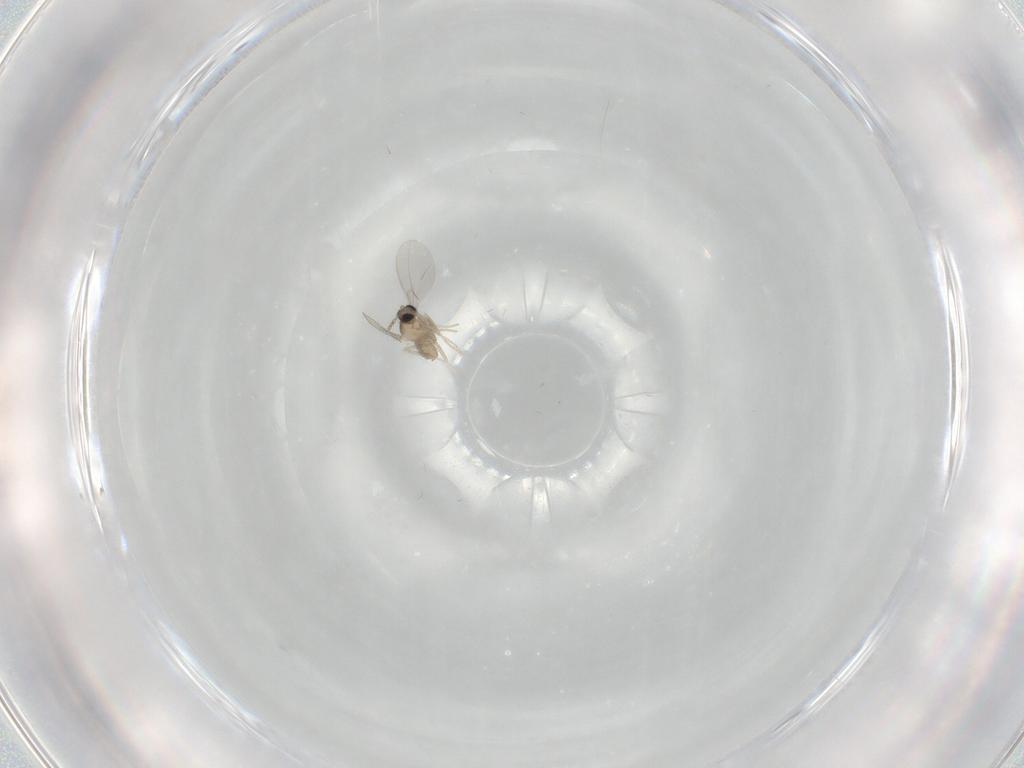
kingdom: Animalia
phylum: Arthropoda
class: Insecta
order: Diptera
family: Cecidomyiidae
